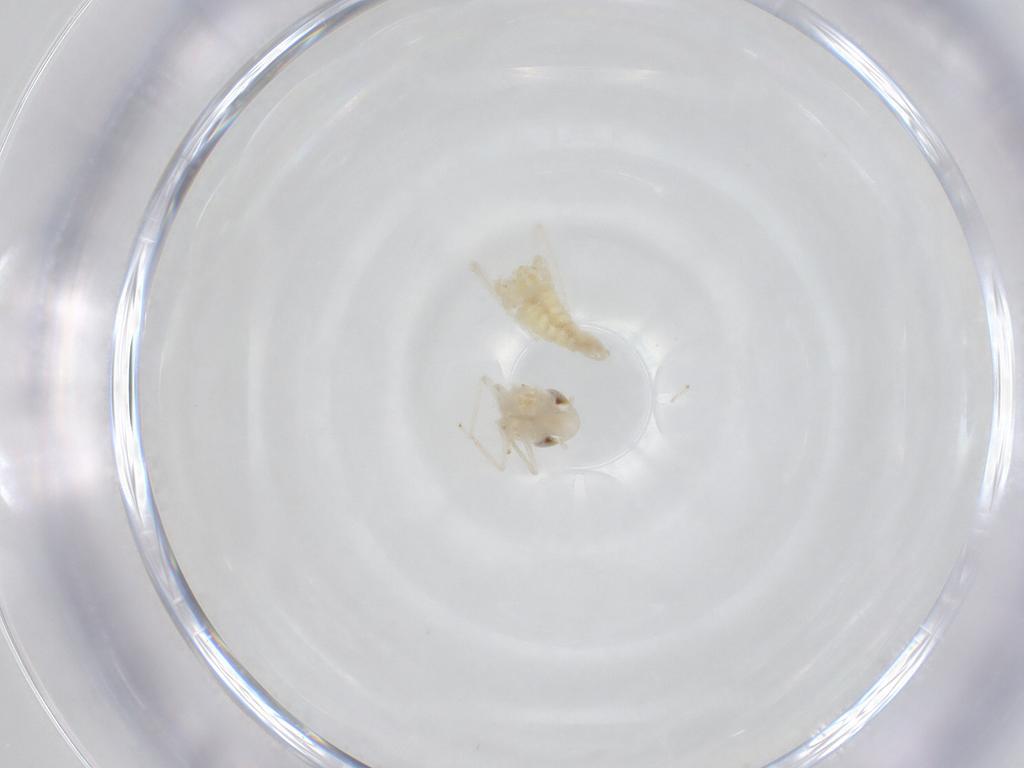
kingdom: Animalia
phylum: Arthropoda
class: Insecta
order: Hemiptera
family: Cicadellidae
